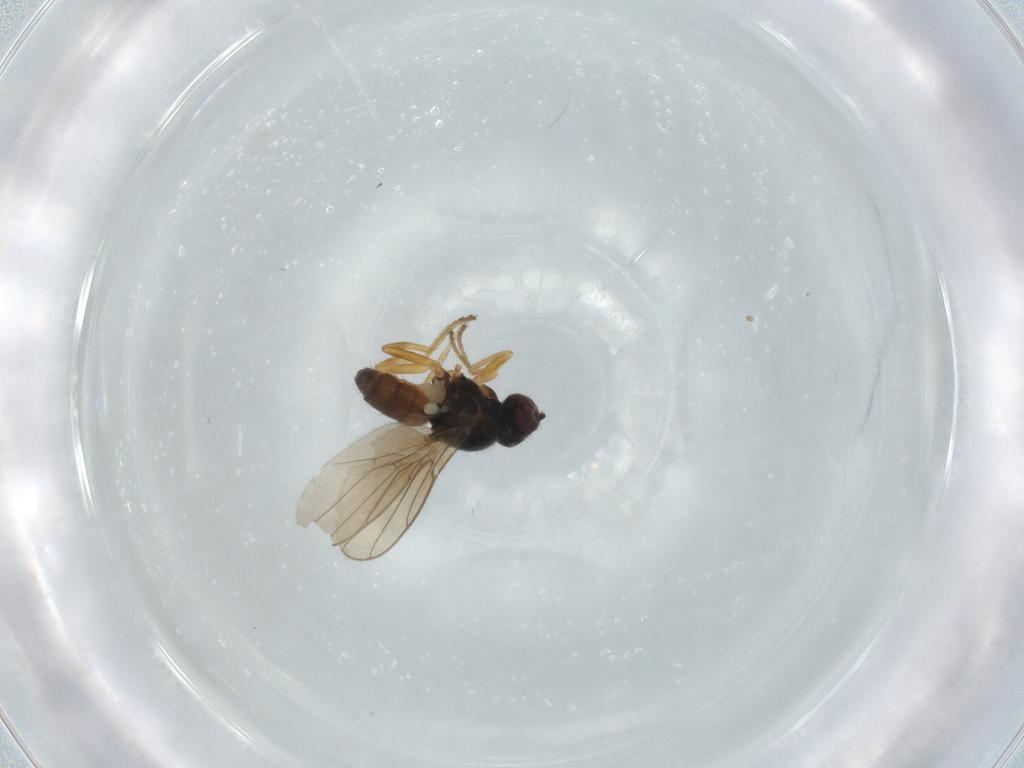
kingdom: Animalia
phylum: Arthropoda
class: Insecta
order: Diptera
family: Chloropidae
